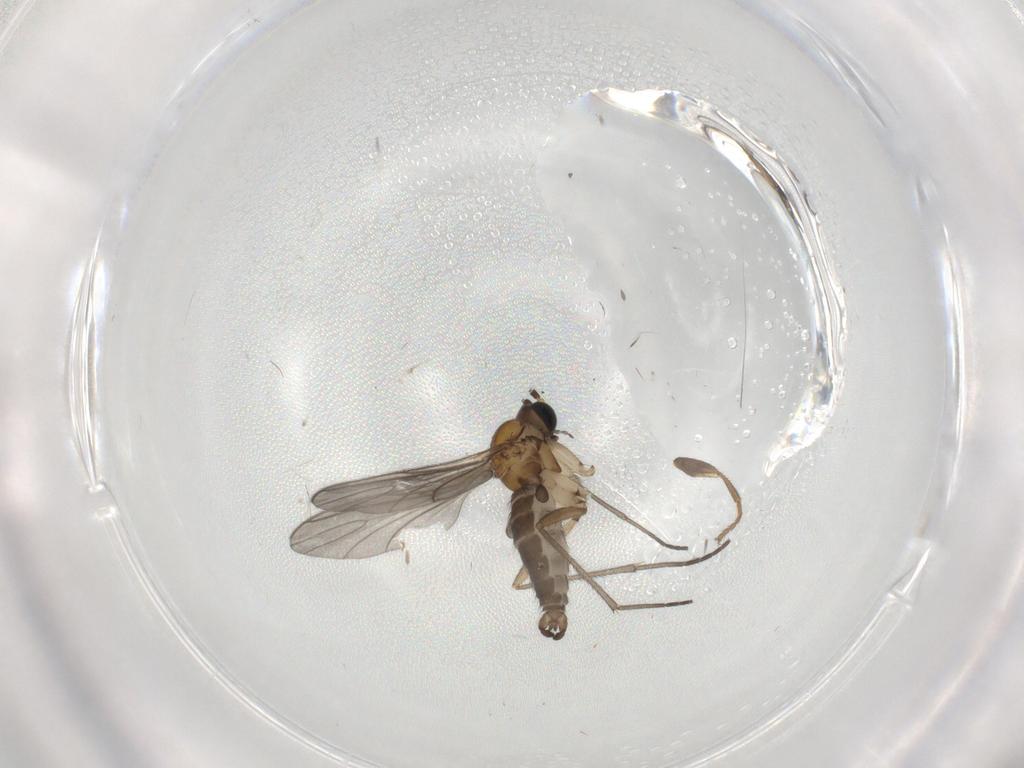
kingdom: Animalia
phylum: Arthropoda
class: Insecta
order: Diptera
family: Sciaridae
